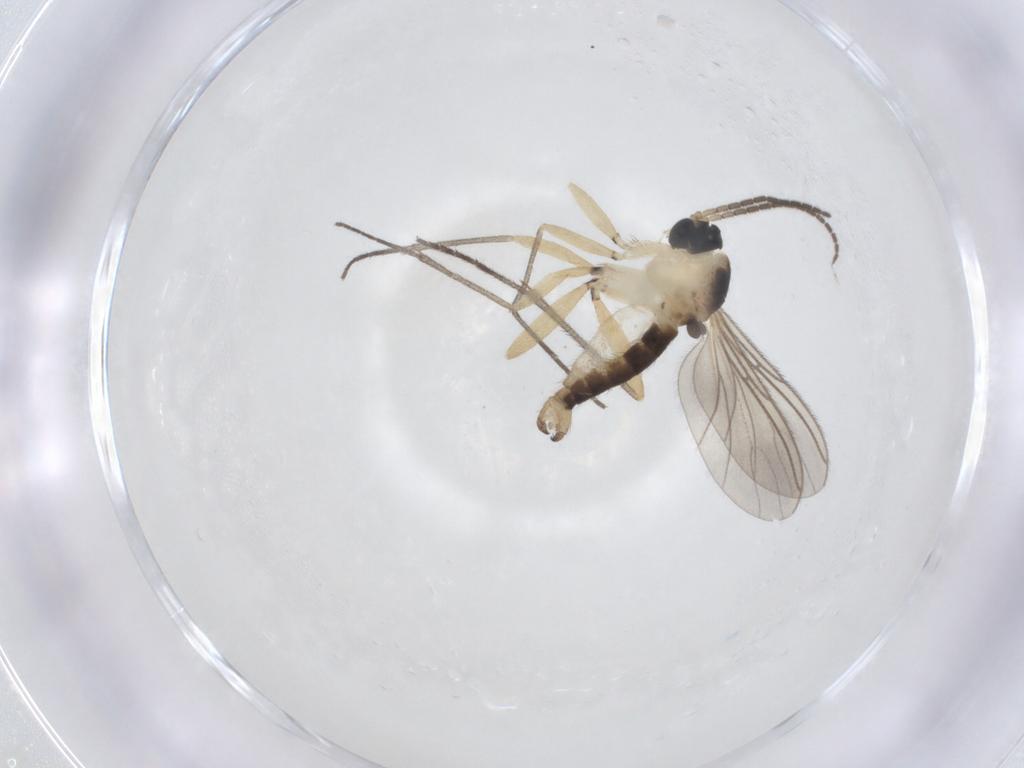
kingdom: Animalia
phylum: Arthropoda
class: Insecta
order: Diptera
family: Sciaridae
